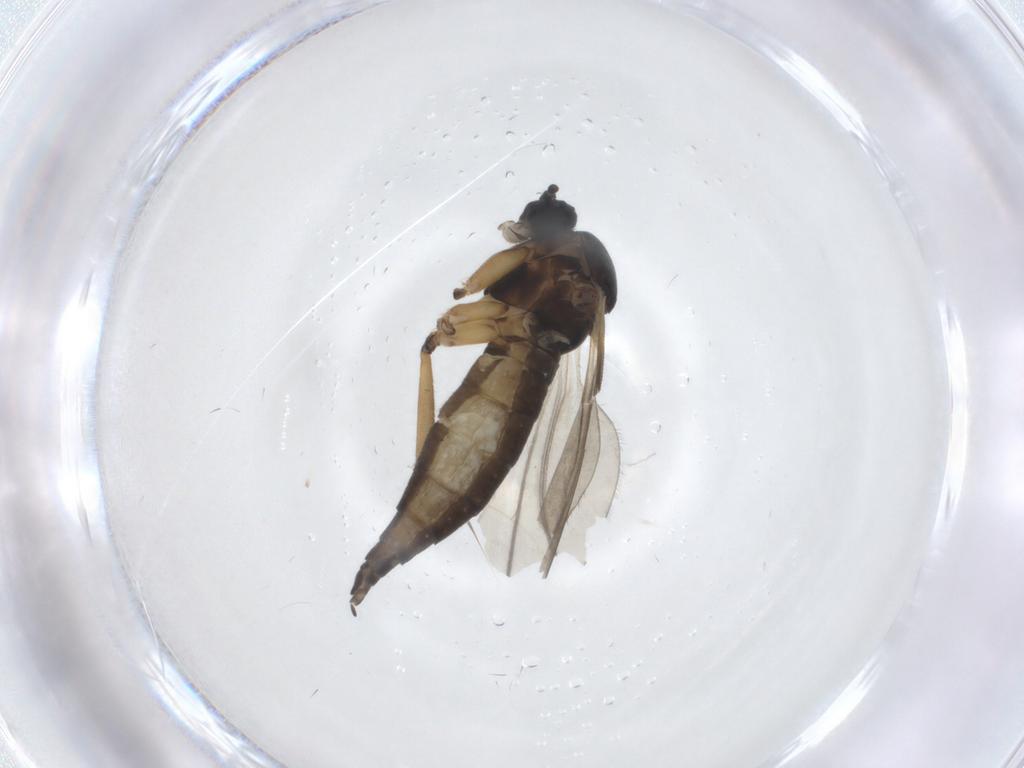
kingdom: Animalia
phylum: Arthropoda
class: Insecta
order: Diptera
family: Sciaridae
